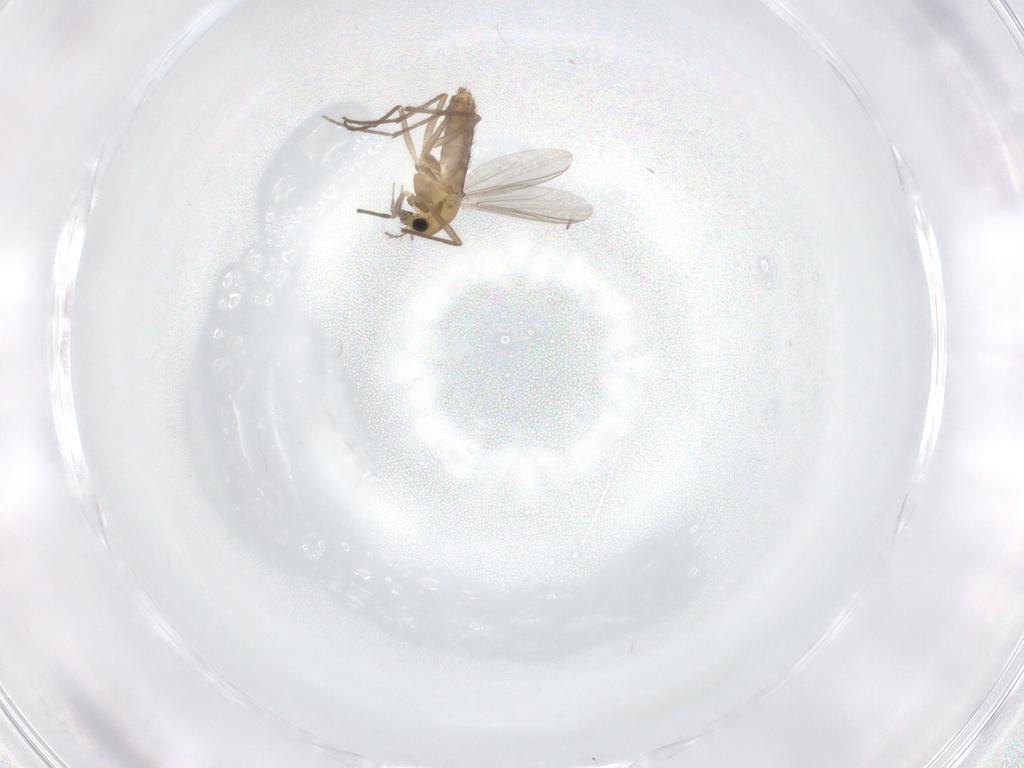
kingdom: Animalia
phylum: Arthropoda
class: Insecta
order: Diptera
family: Chironomidae
